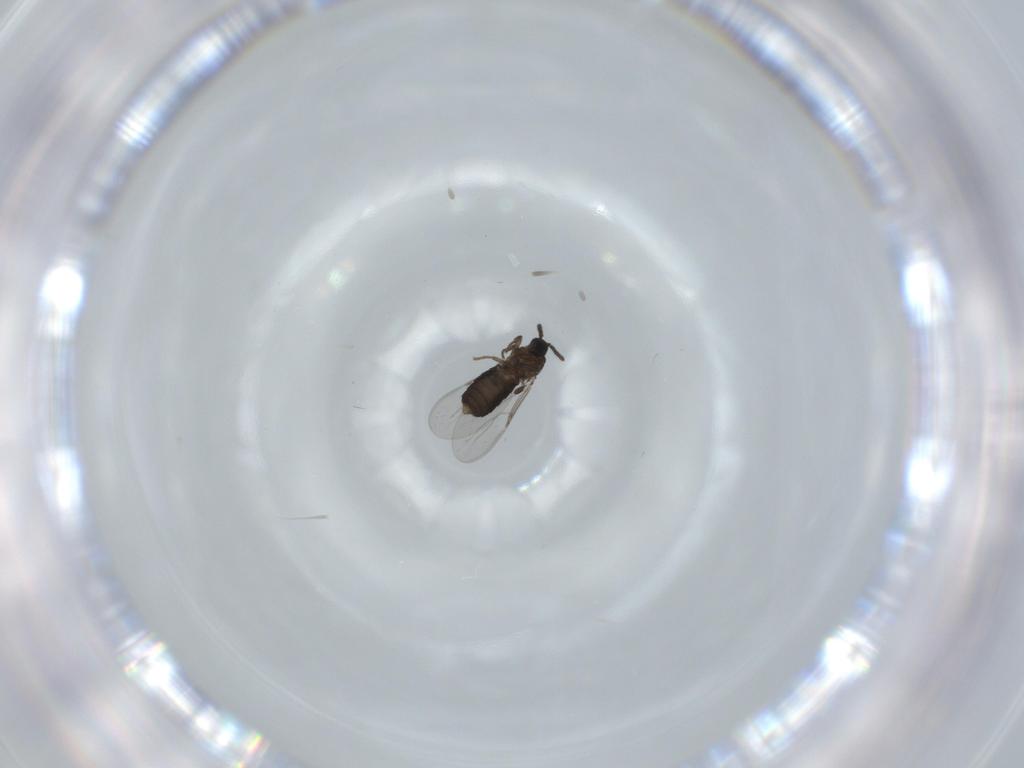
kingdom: Animalia
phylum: Arthropoda
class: Insecta
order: Diptera
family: Scatopsidae
